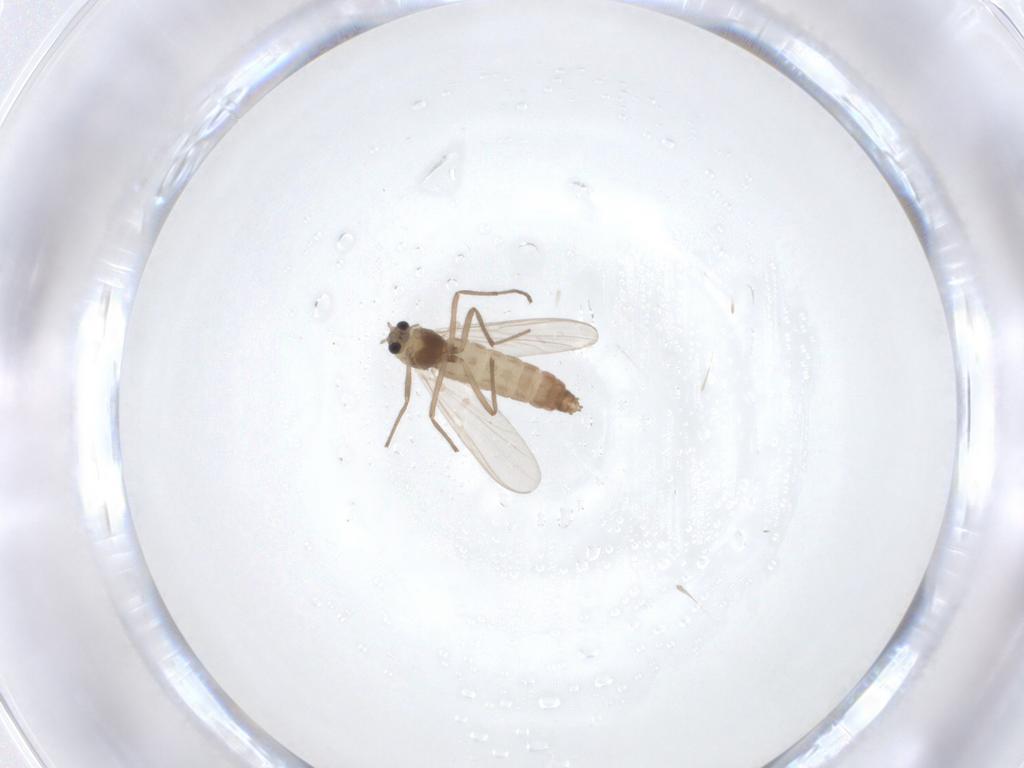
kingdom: Animalia
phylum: Arthropoda
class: Insecta
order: Diptera
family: Chironomidae
